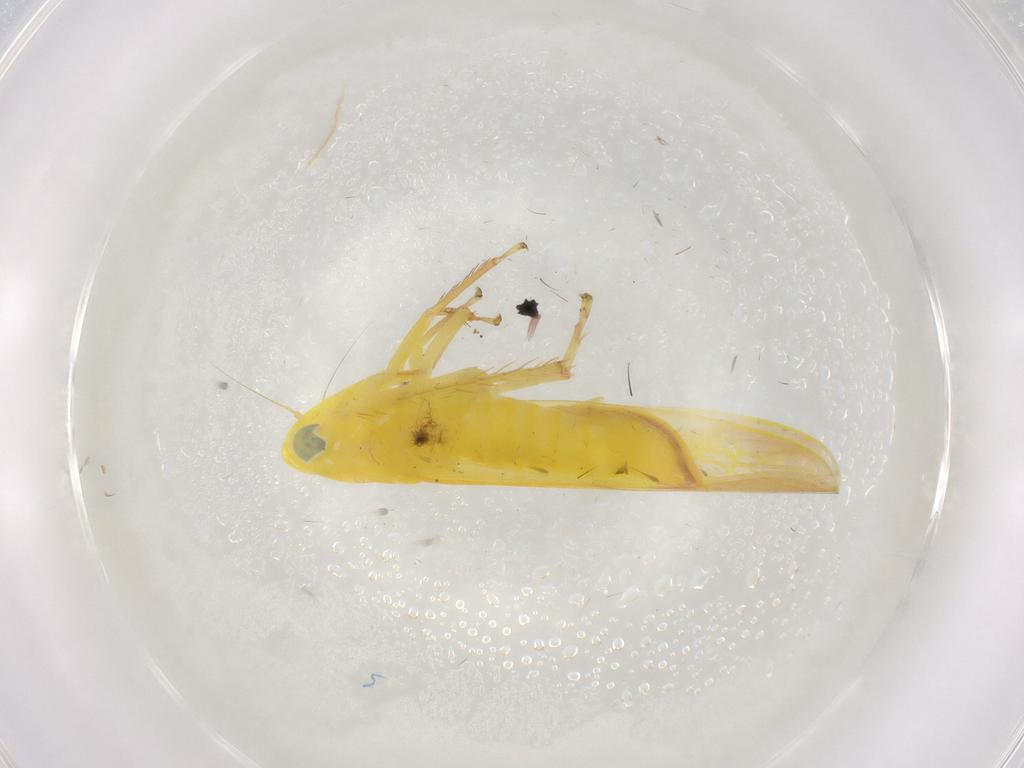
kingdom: Animalia
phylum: Arthropoda
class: Insecta
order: Hemiptera
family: Cicadellidae
